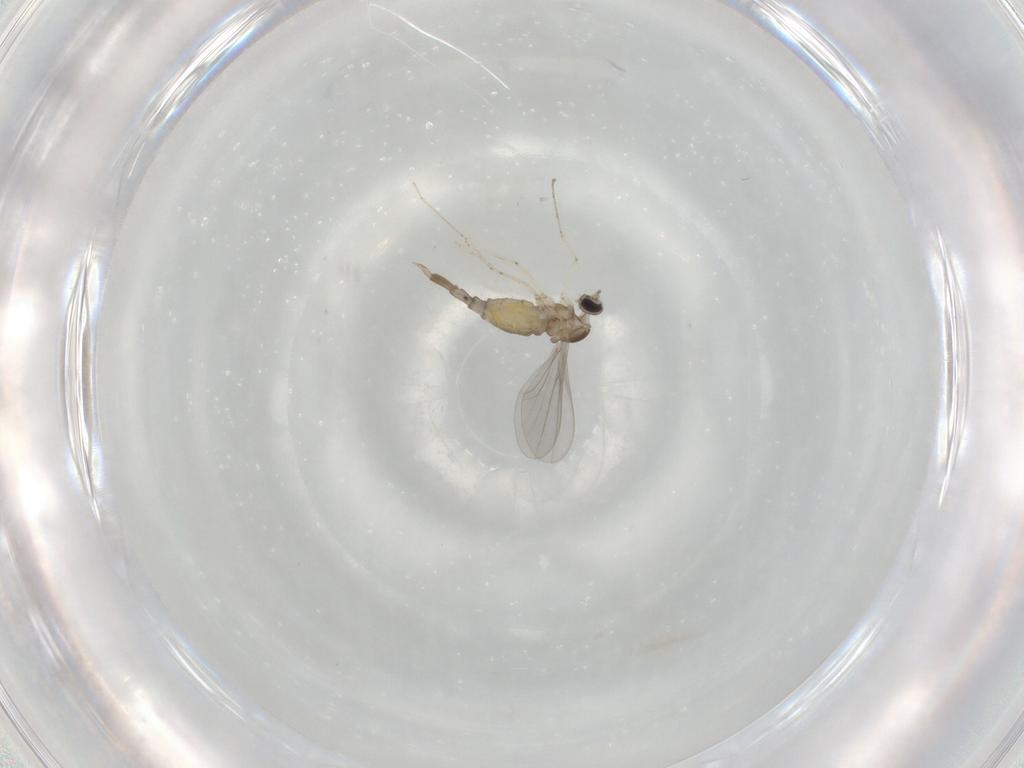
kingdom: Animalia
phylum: Arthropoda
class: Insecta
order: Diptera
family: Cecidomyiidae
